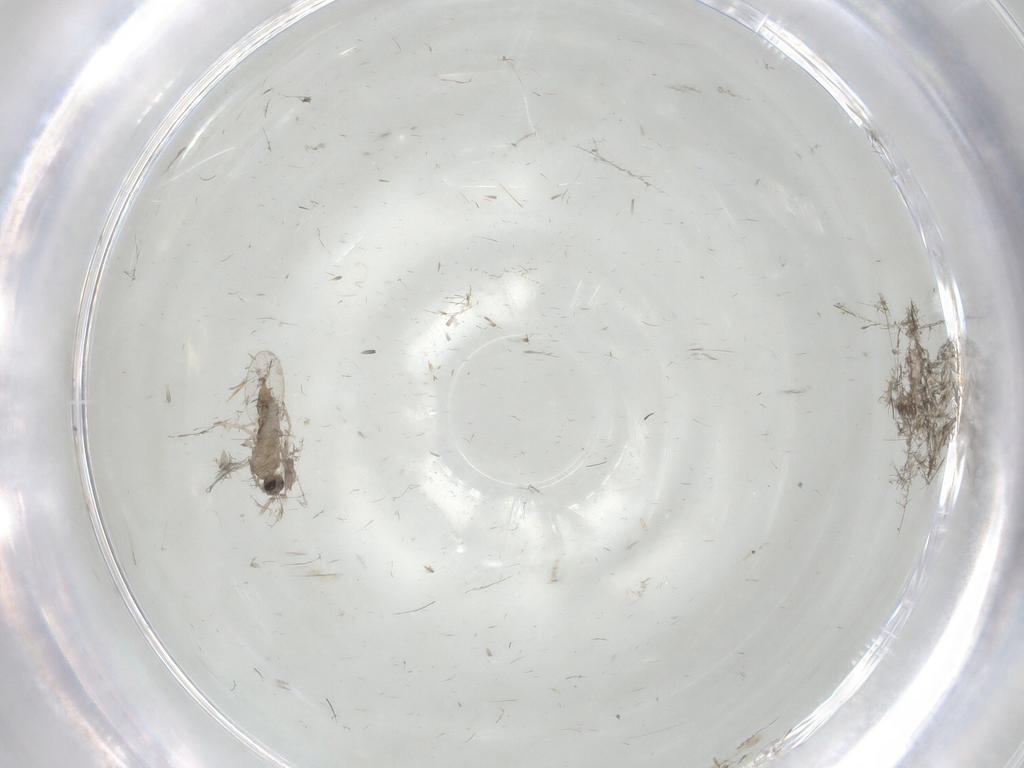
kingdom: Animalia
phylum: Arthropoda
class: Insecta
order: Diptera
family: Cecidomyiidae
